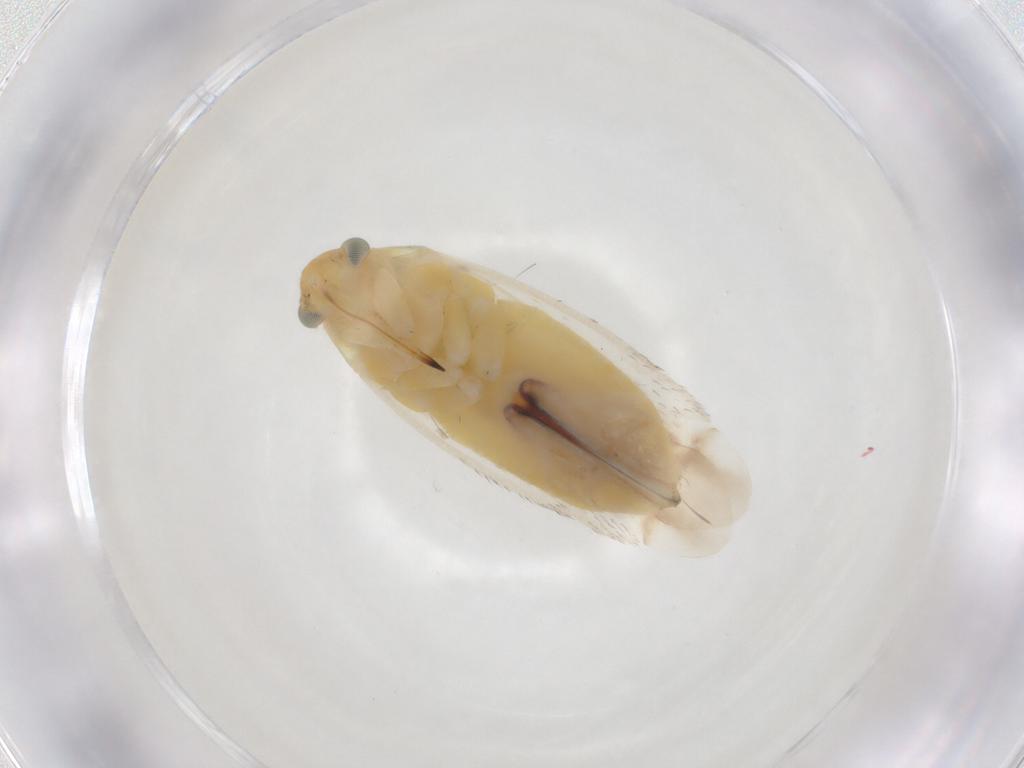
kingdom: Animalia
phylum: Arthropoda
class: Insecta
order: Hemiptera
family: Miridae
